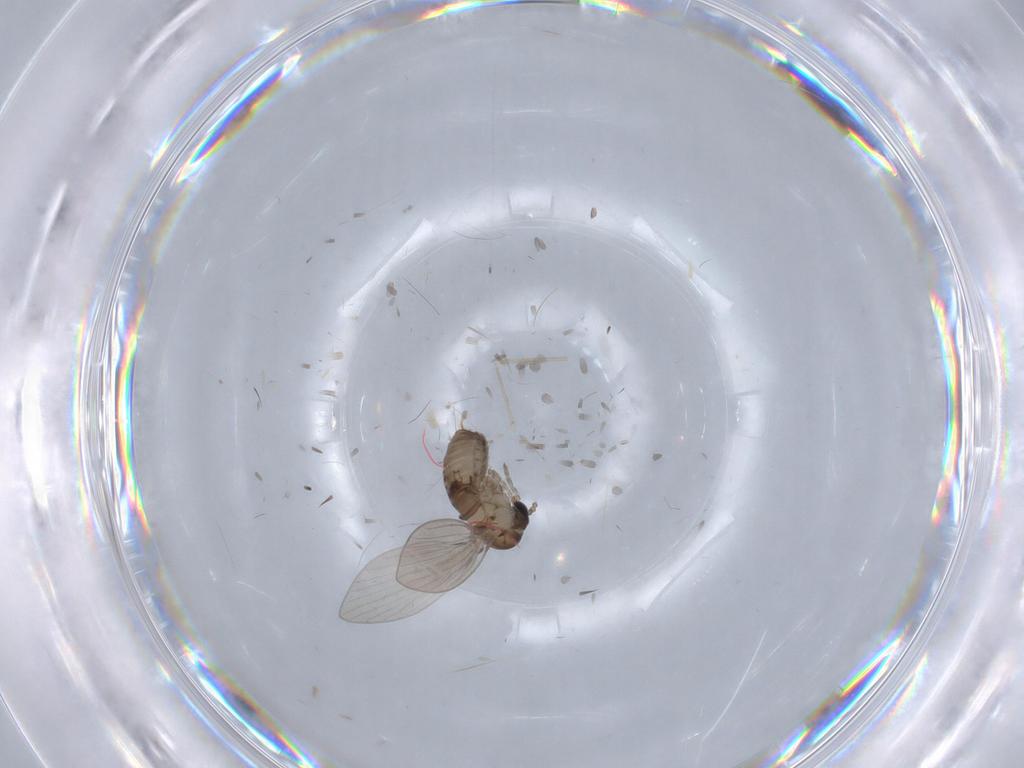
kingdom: Animalia
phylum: Arthropoda
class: Insecta
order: Diptera
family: Psychodidae
